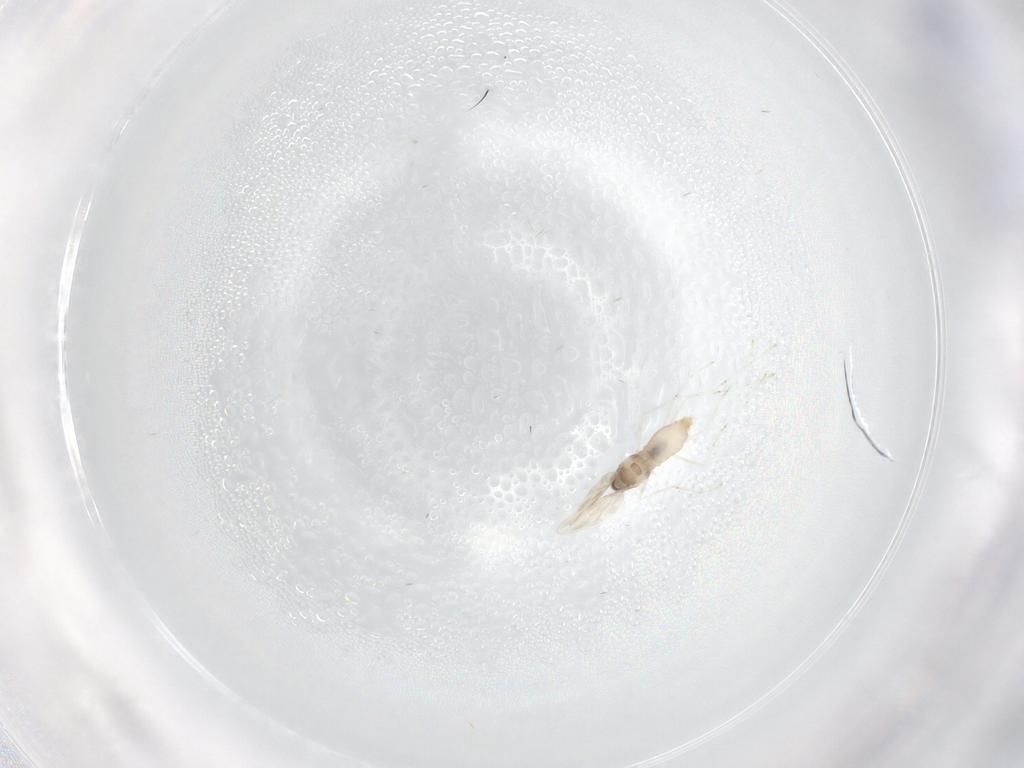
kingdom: Animalia
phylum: Arthropoda
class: Insecta
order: Diptera
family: Cecidomyiidae
